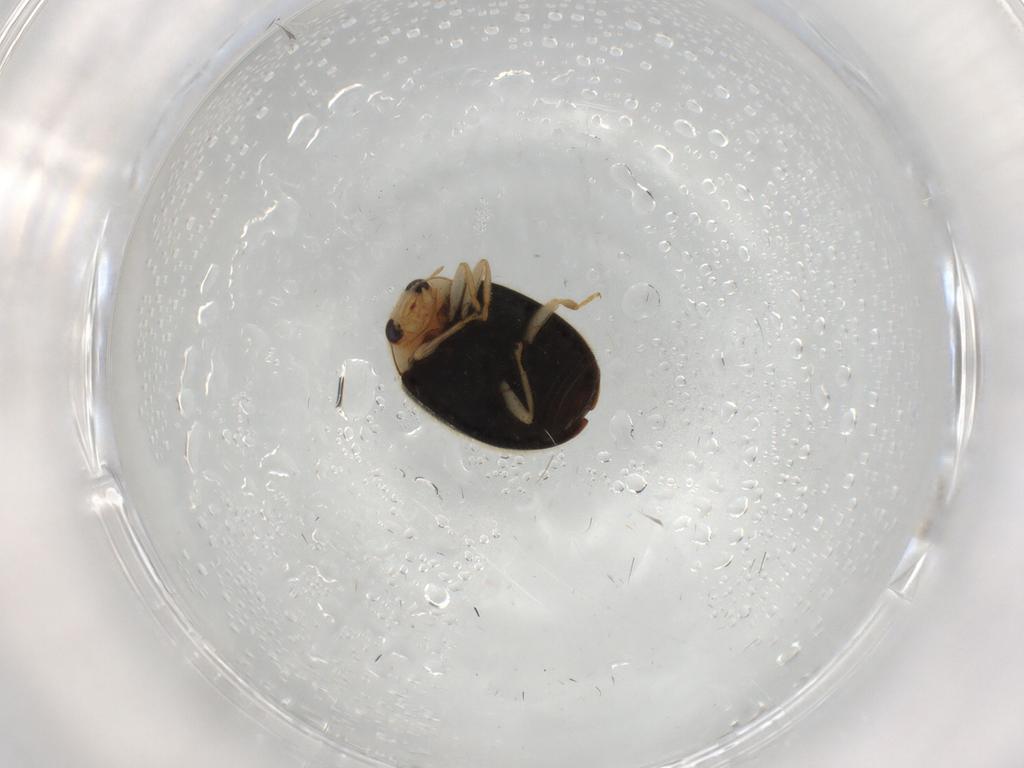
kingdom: Animalia
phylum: Arthropoda
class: Insecta
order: Coleoptera
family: Coccinellidae
